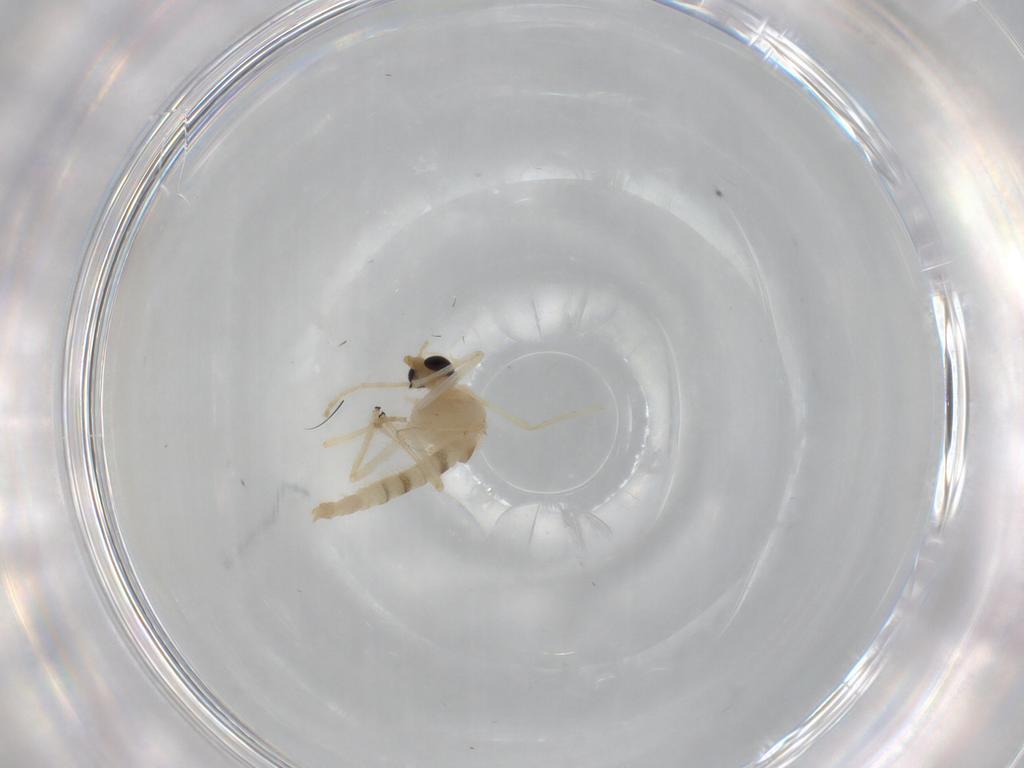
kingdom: Animalia
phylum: Arthropoda
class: Insecta
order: Diptera
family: Chironomidae
